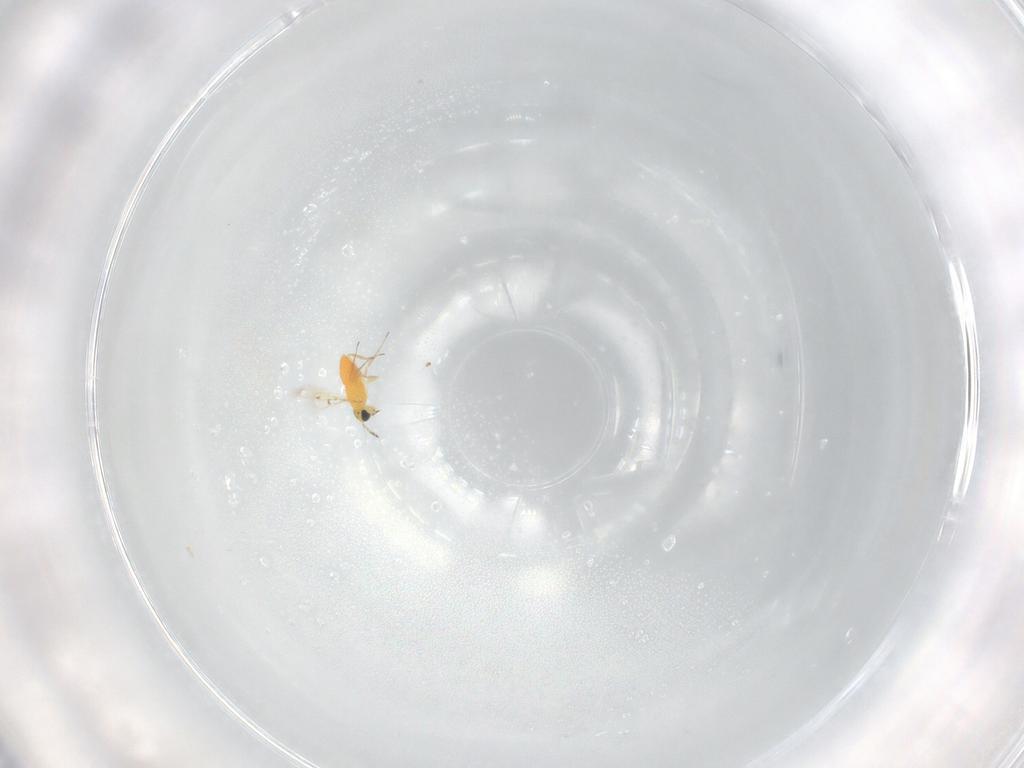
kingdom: Animalia
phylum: Arthropoda
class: Insecta
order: Hymenoptera
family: Trichogrammatidae
